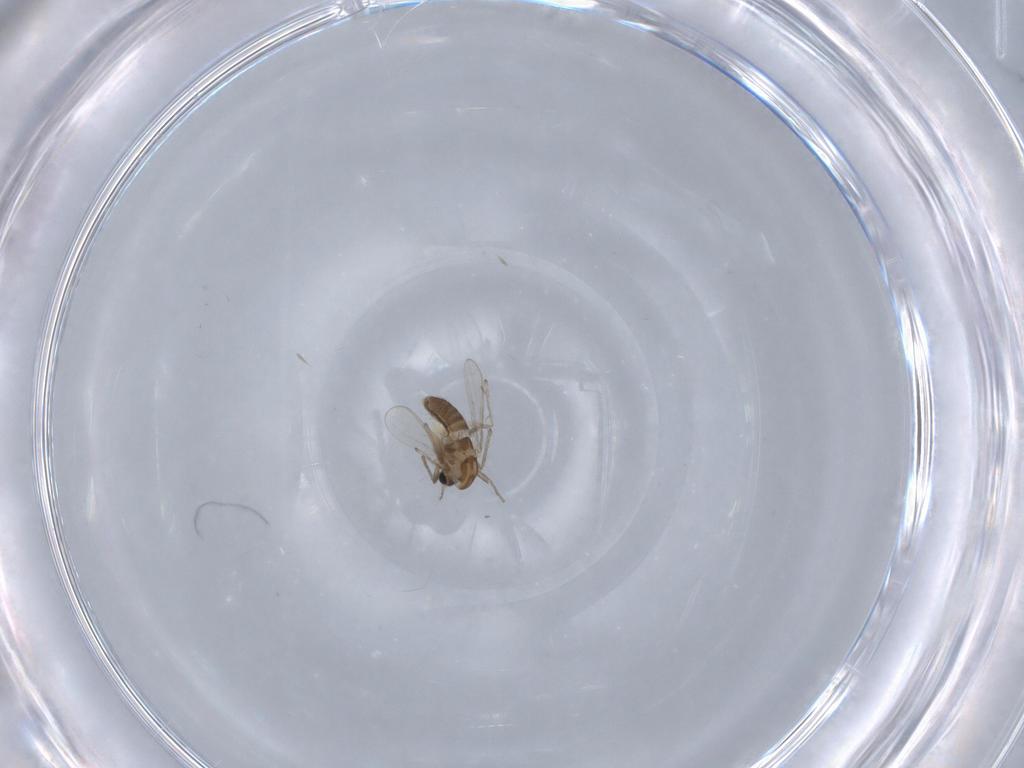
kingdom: Animalia
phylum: Arthropoda
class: Insecta
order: Diptera
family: Chironomidae
